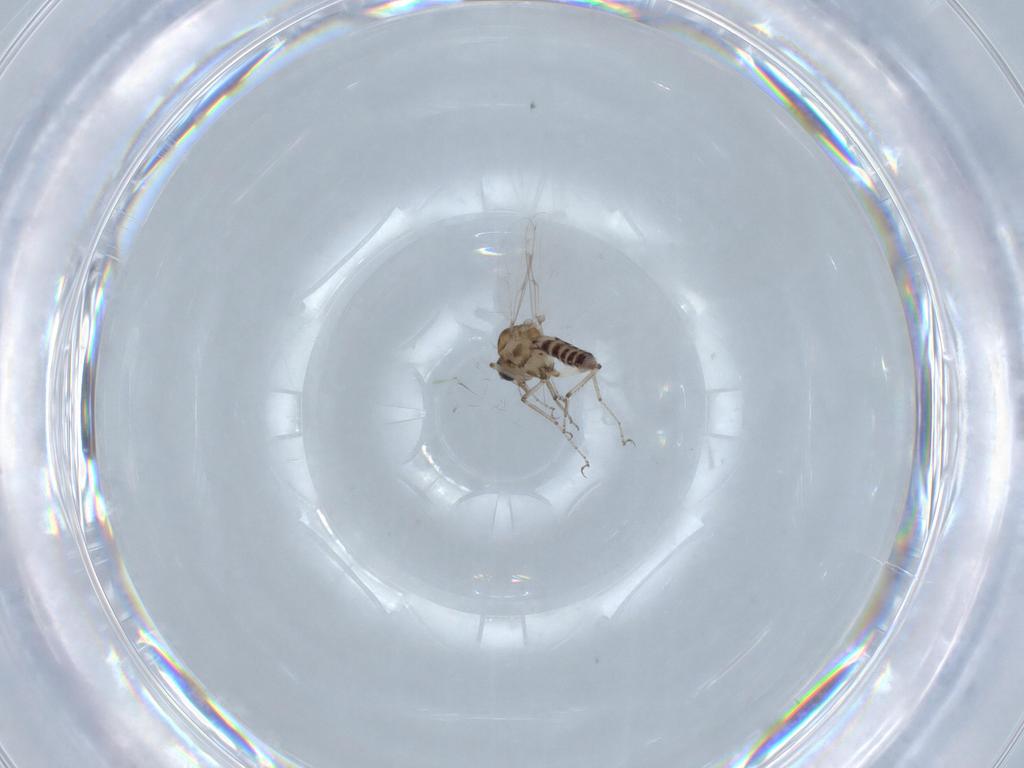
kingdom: Animalia
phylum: Arthropoda
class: Insecta
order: Diptera
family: Ceratopogonidae
